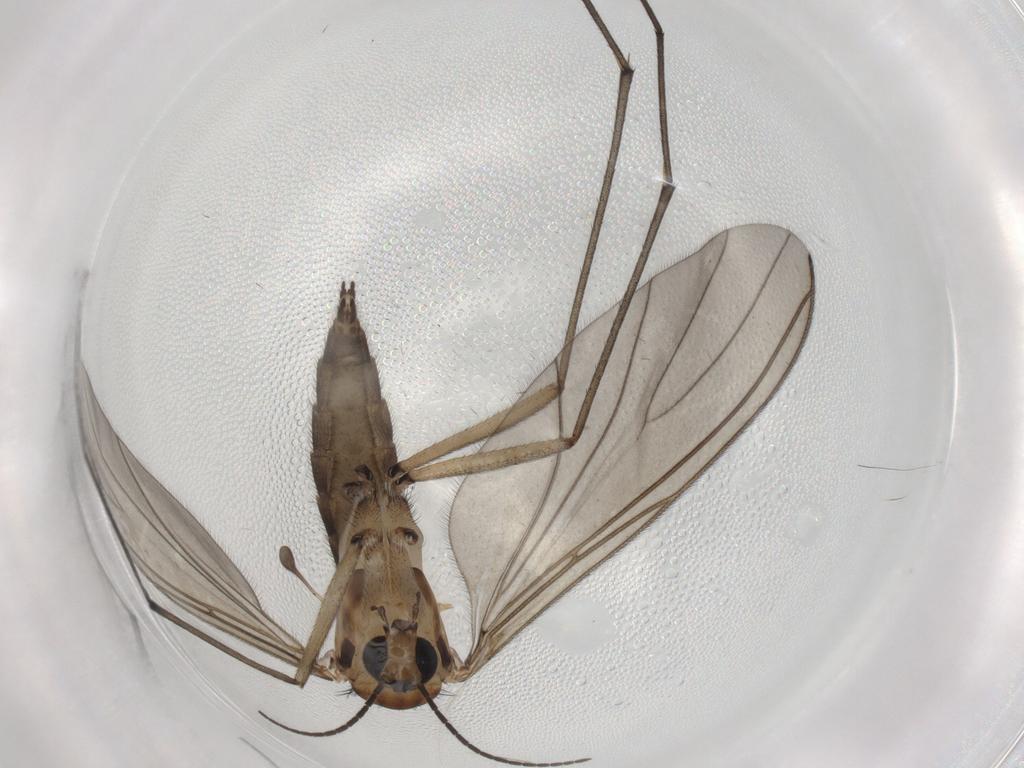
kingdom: Animalia
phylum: Arthropoda
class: Insecta
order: Diptera
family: Sciaridae
